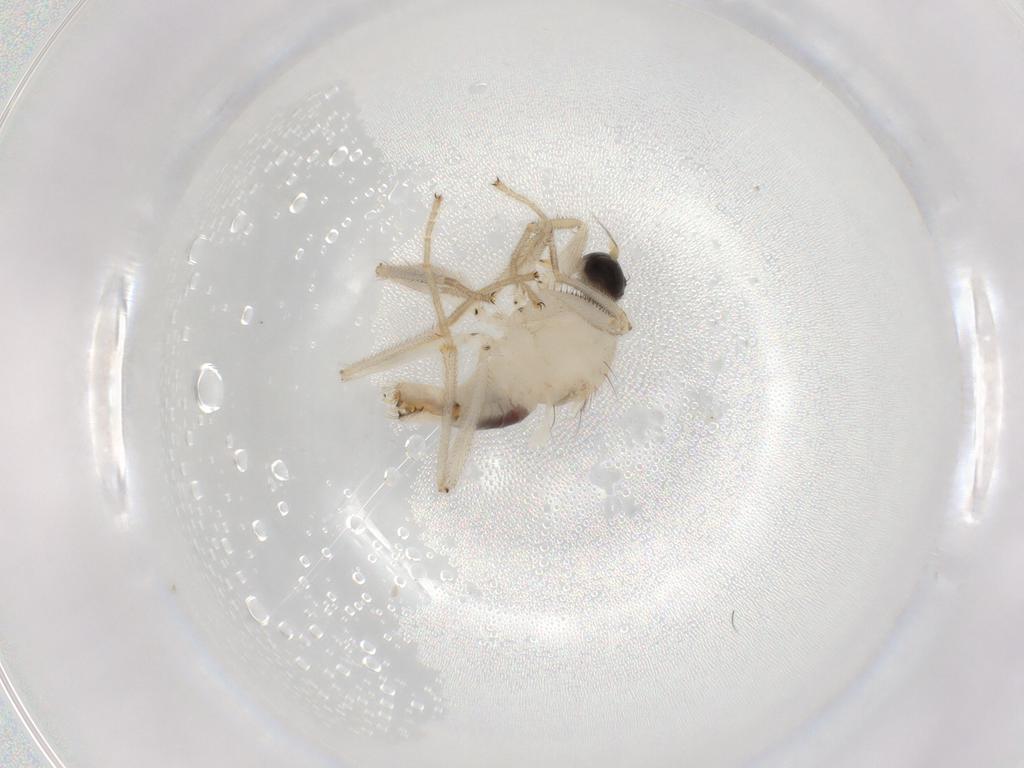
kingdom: Animalia
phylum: Arthropoda
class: Insecta
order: Diptera
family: Hybotidae
